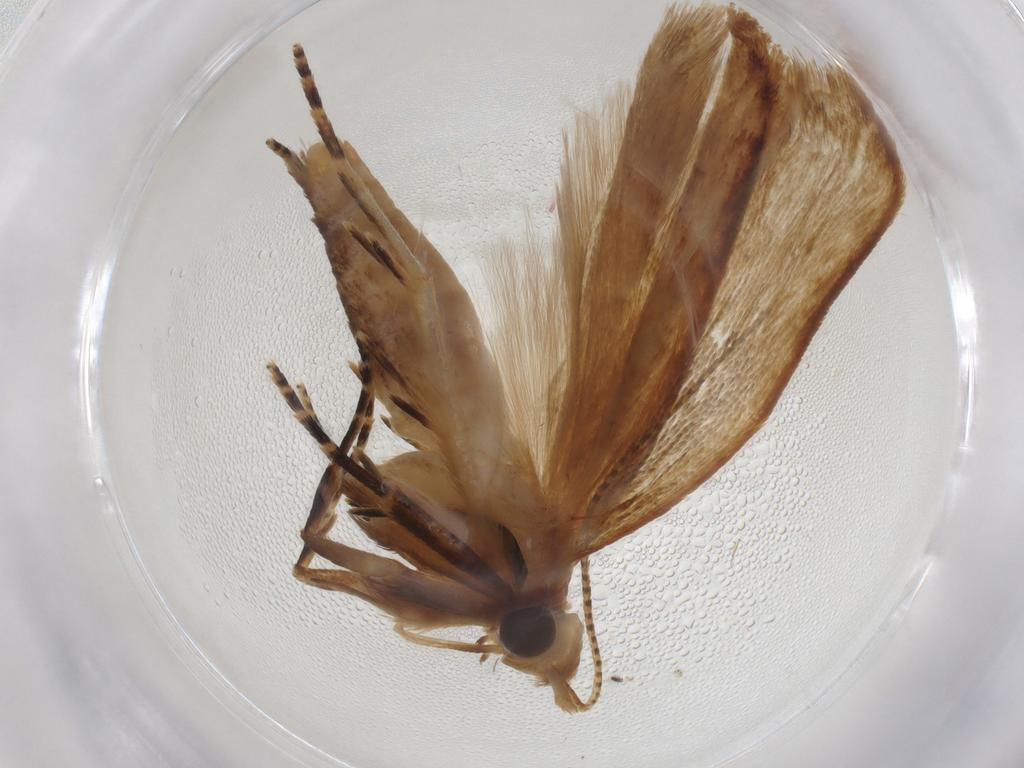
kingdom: Animalia
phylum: Arthropoda
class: Insecta
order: Lepidoptera
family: Gelechiidae
